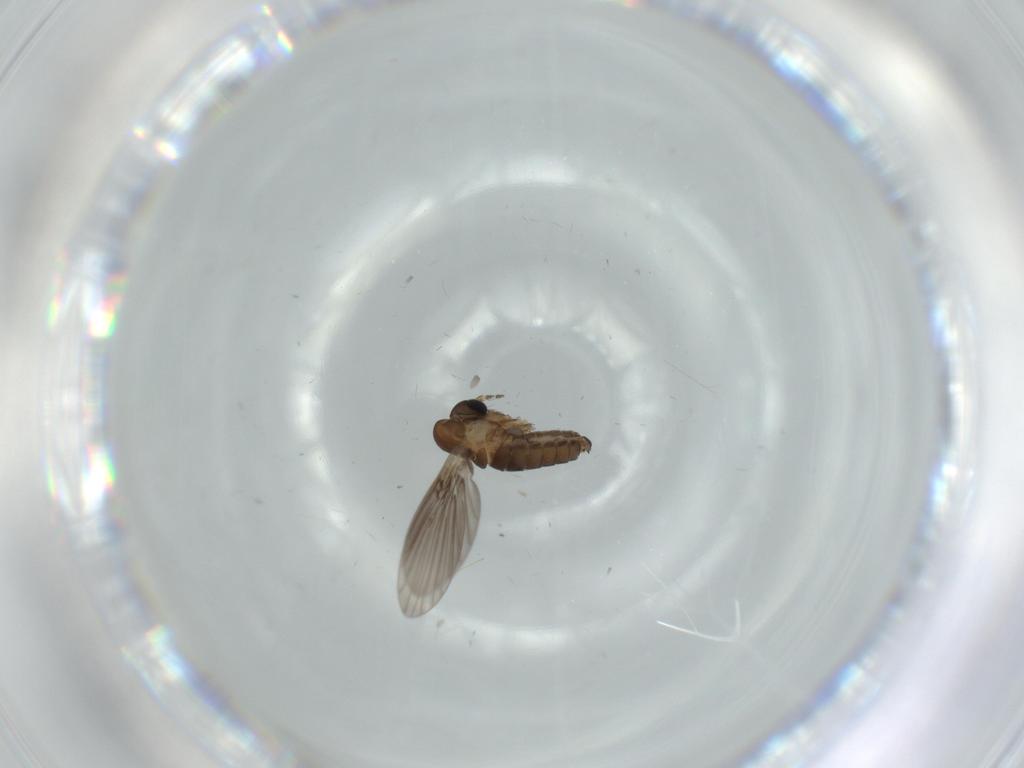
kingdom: Animalia
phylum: Arthropoda
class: Insecta
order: Diptera
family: Psychodidae
